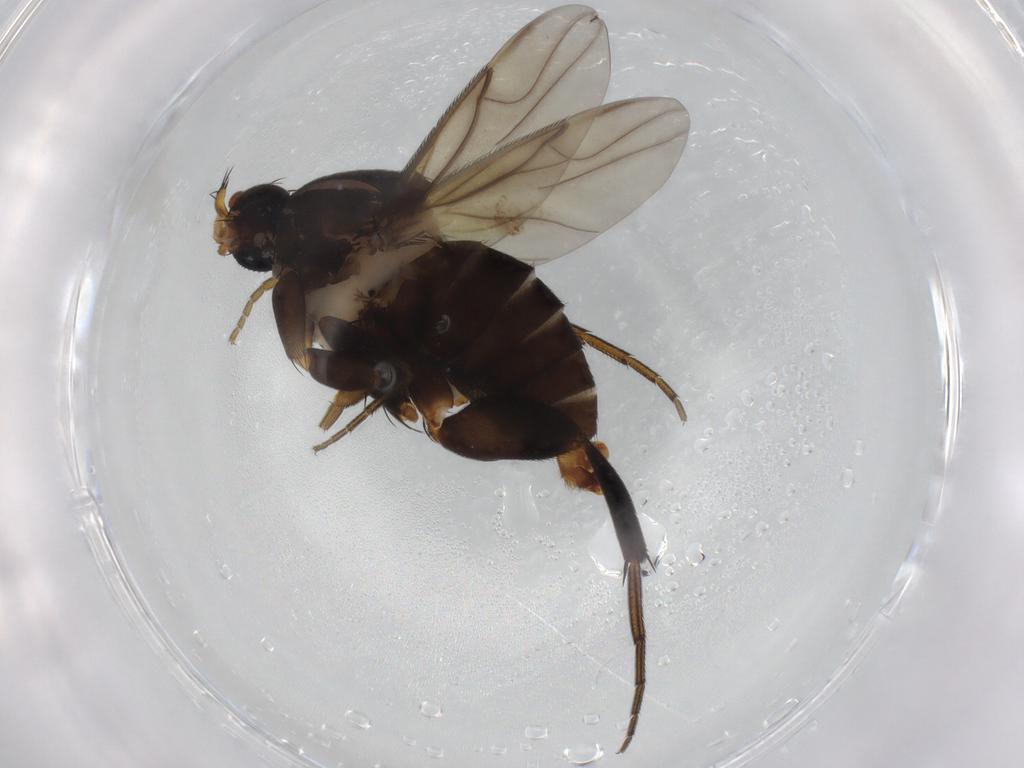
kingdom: Animalia
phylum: Arthropoda
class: Insecta
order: Diptera
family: Phoridae
